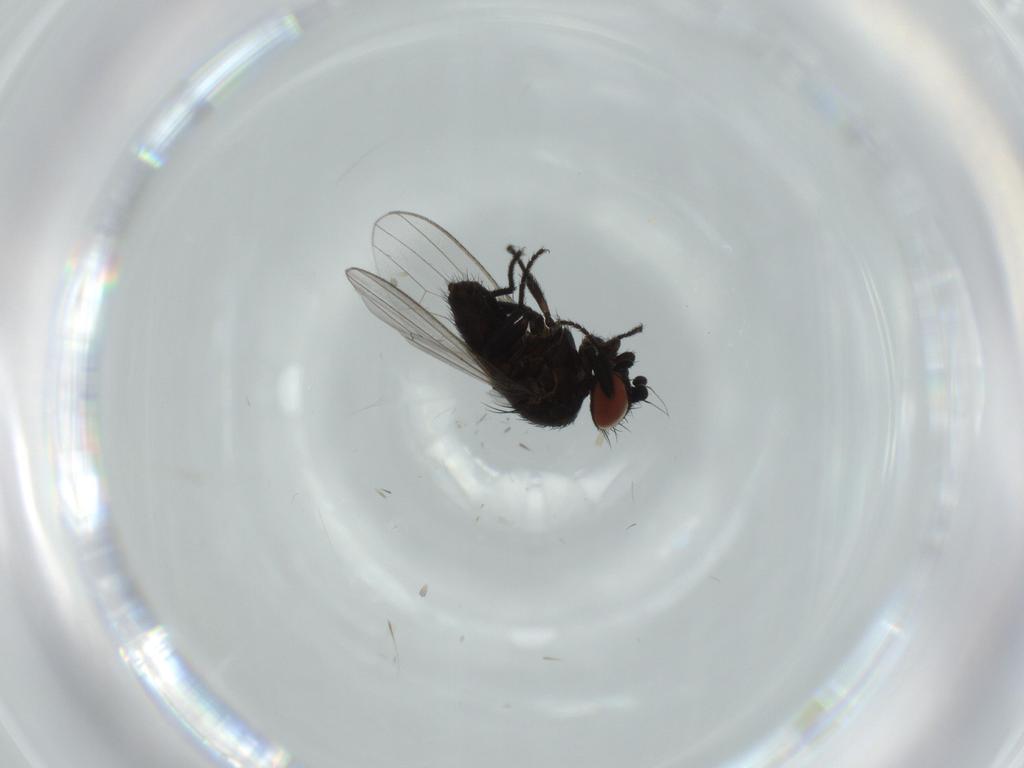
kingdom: Animalia
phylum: Arthropoda
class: Insecta
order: Diptera
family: Milichiidae
